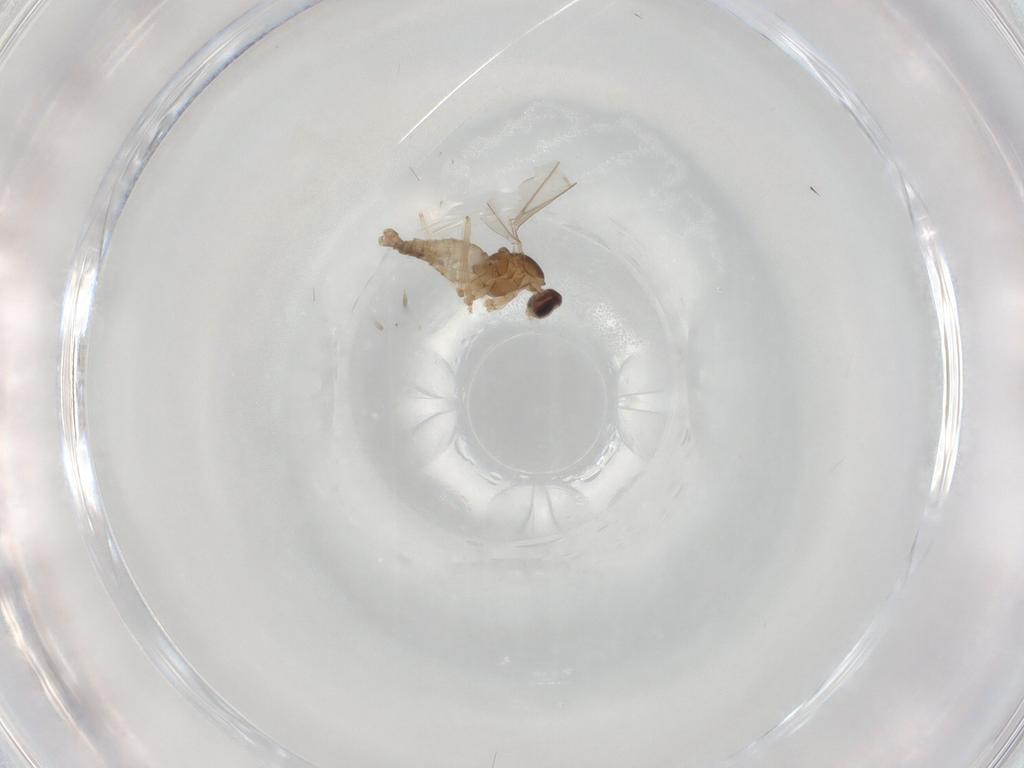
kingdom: Animalia
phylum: Arthropoda
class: Insecta
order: Diptera
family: Cecidomyiidae
